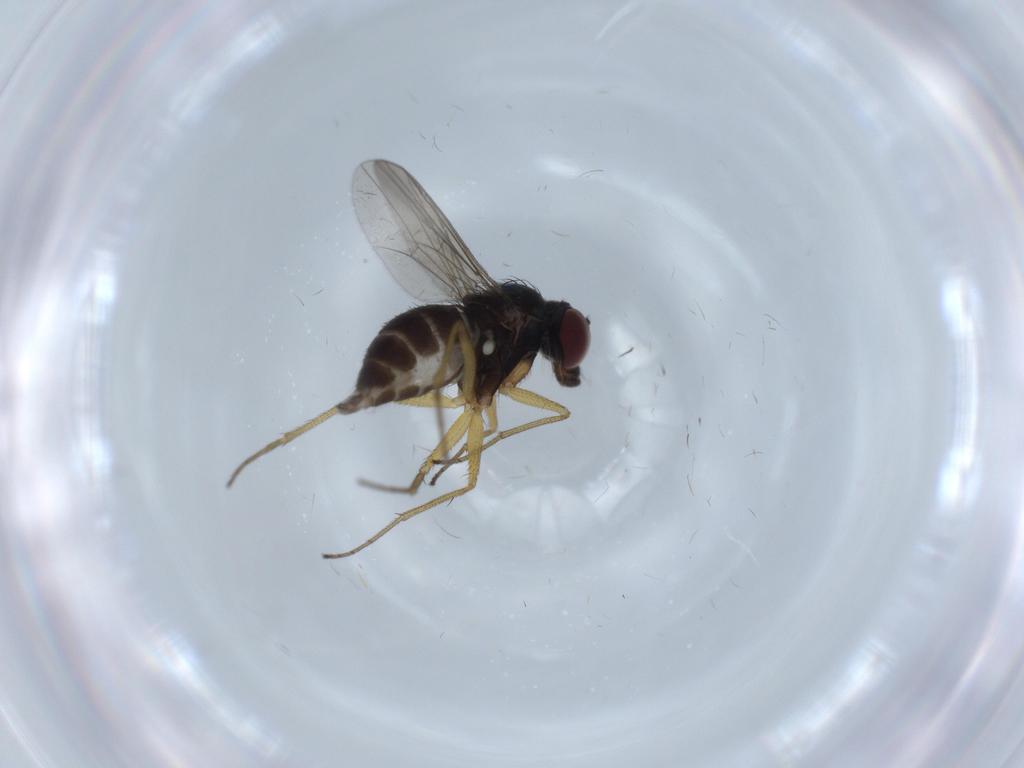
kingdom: Animalia
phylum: Arthropoda
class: Insecta
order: Diptera
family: Dolichopodidae
